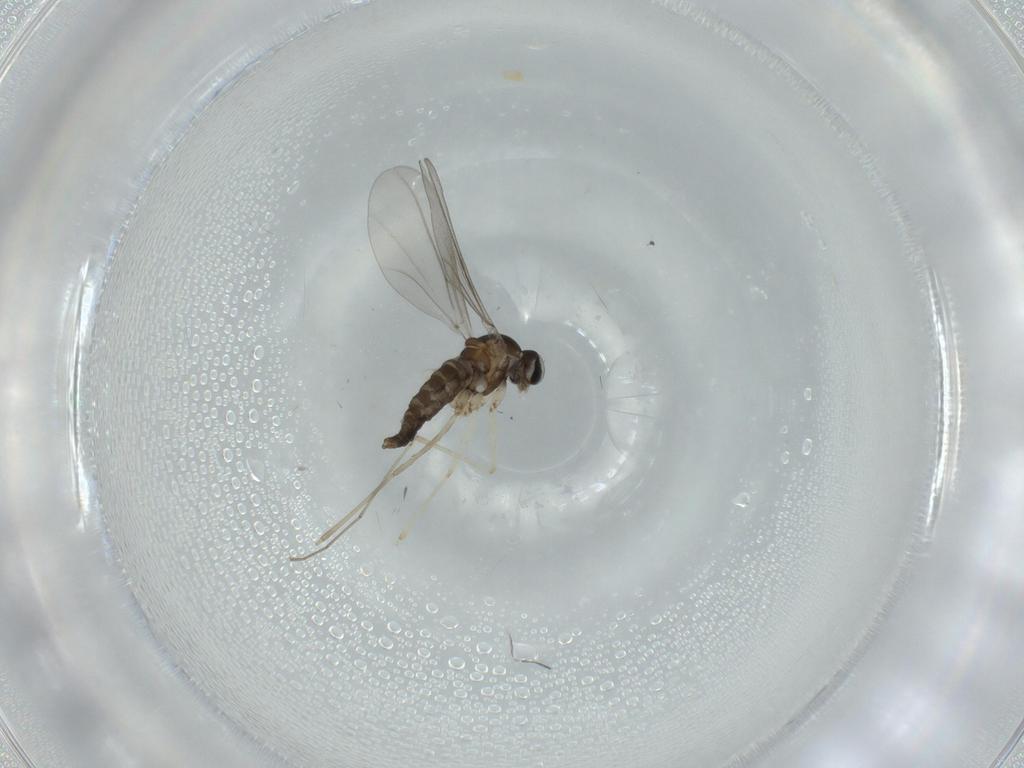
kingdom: Animalia
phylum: Arthropoda
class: Insecta
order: Diptera
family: Cecidomyiidae
